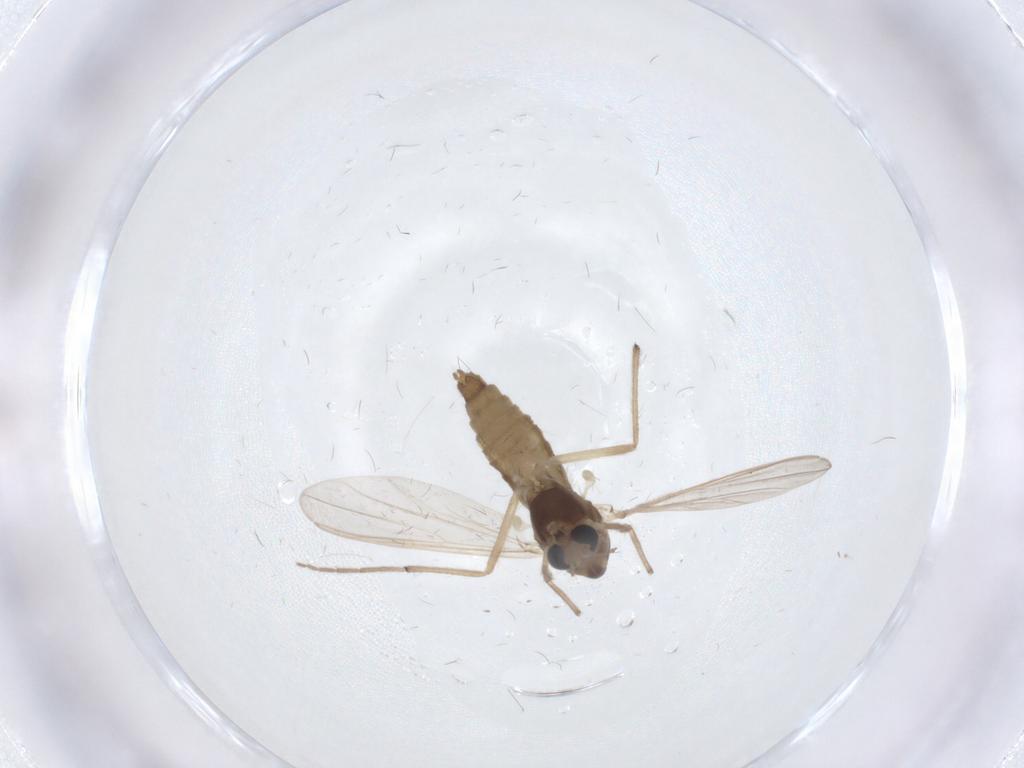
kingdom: Animalia
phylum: Arthropoda
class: Insecta
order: Diptera
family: Chironomidae
